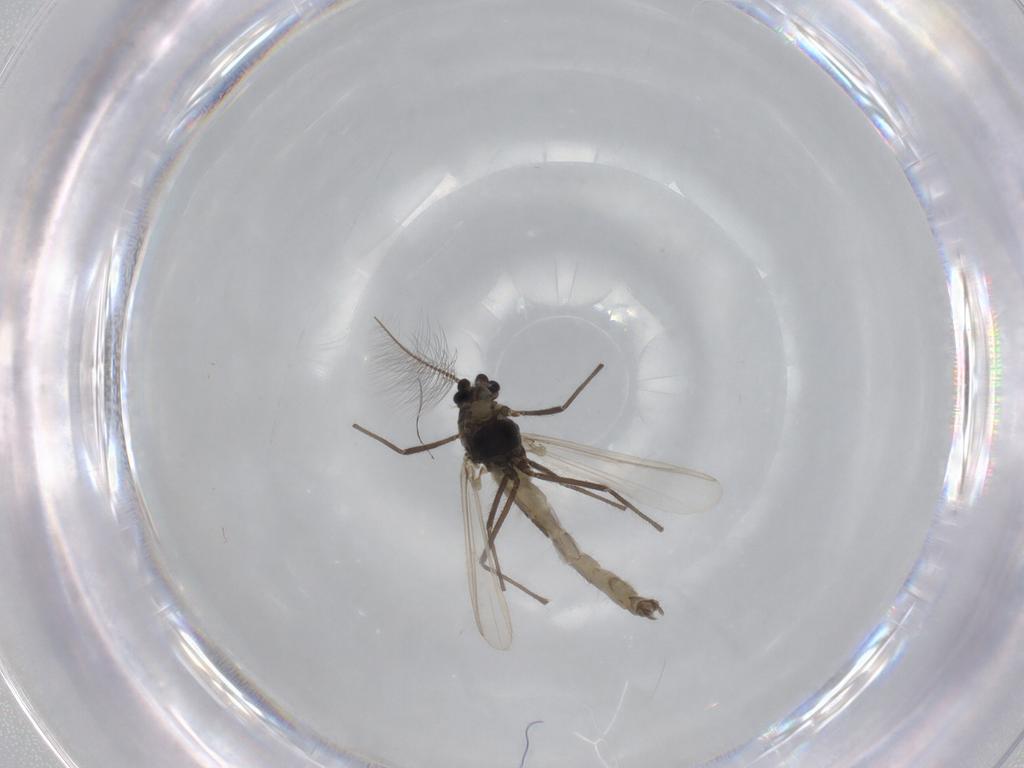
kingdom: Animalia
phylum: Arthropoda
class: Insecta
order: Diptera
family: Chironomidae
